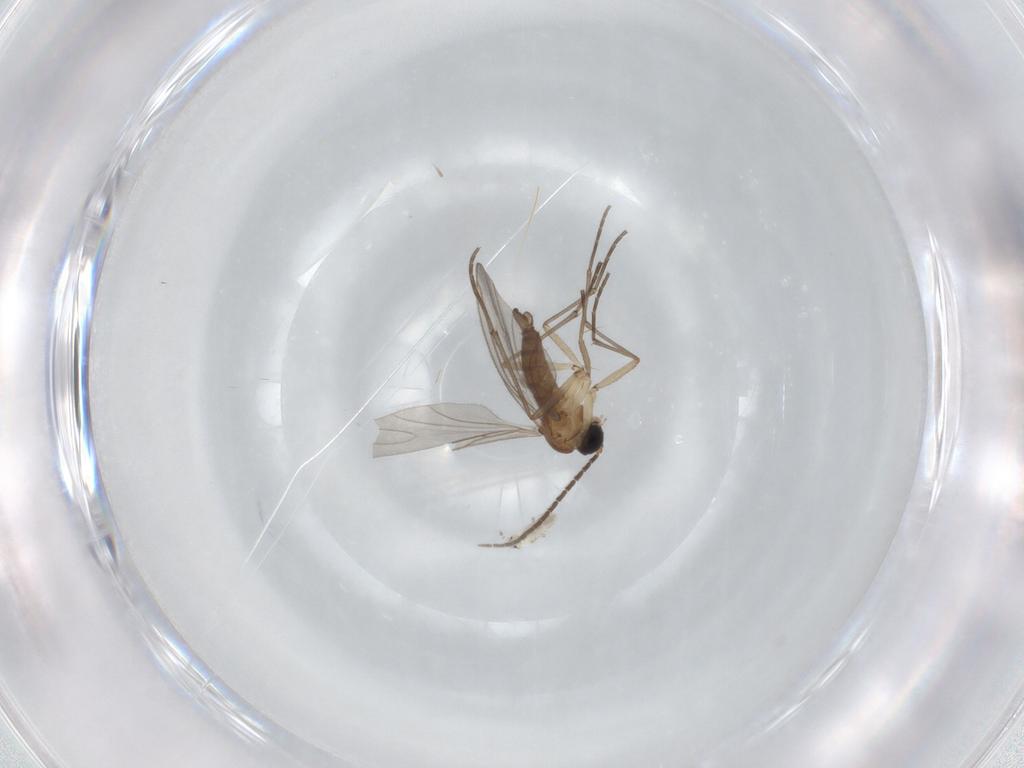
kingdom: Animalia
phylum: Arthropoda
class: Insecta
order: Diptera
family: Sciaridae
